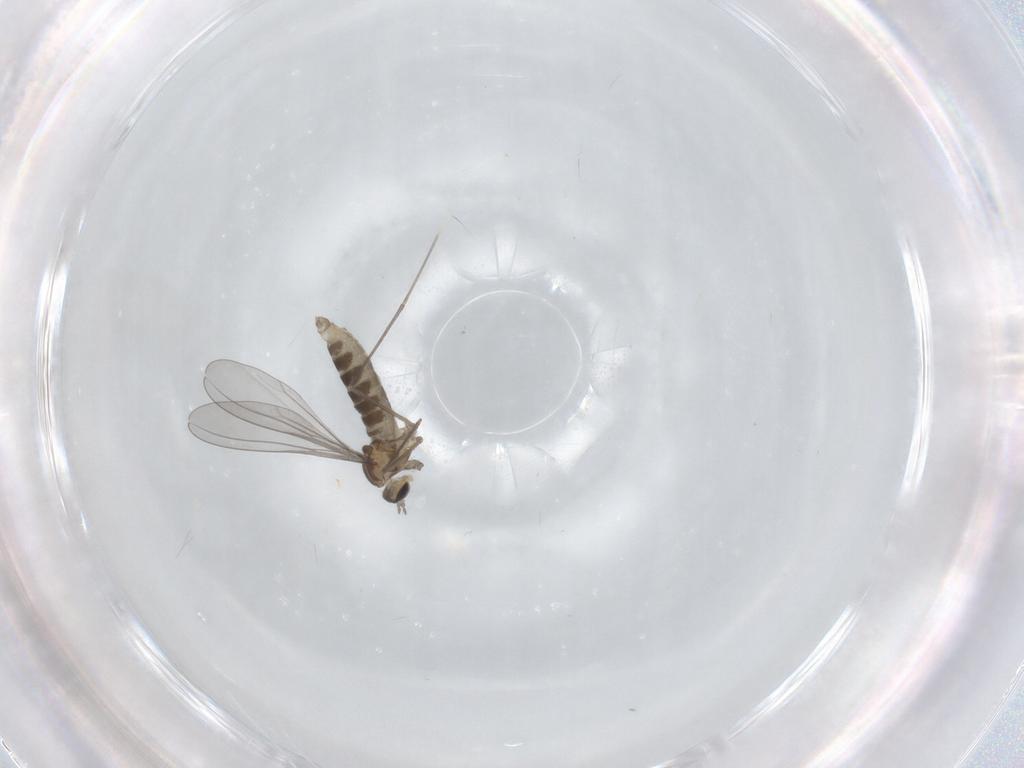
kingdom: Animalia
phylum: Arthropoda
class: Insecta
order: Diptera
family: Cecidomyiidae
